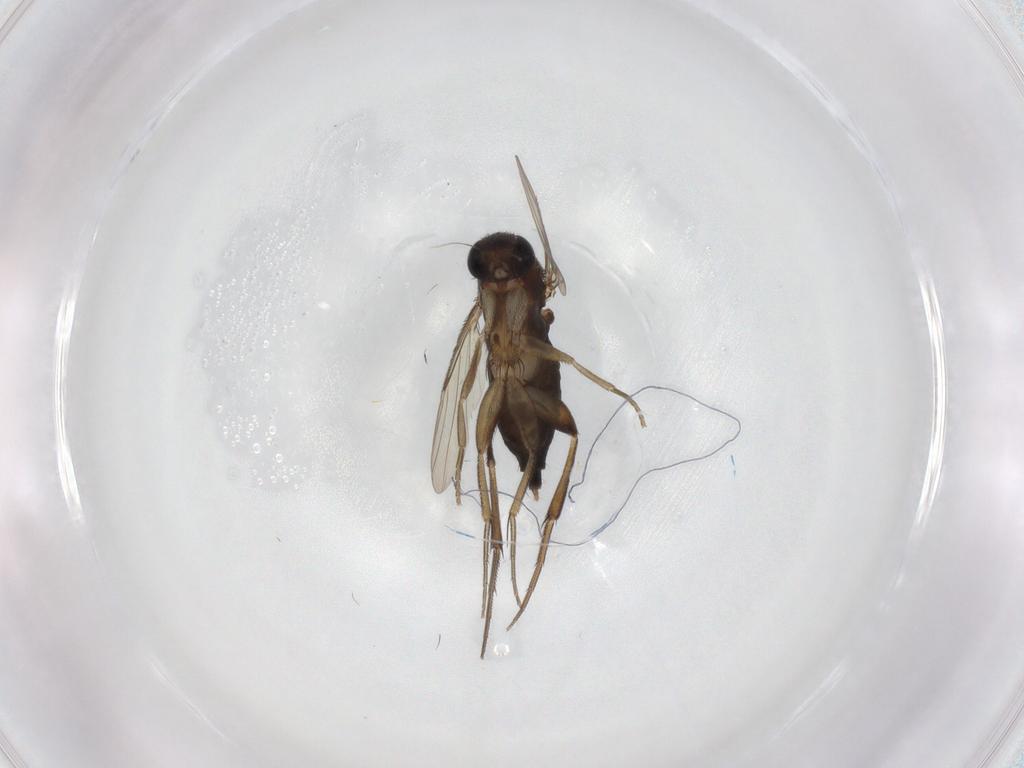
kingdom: Animalia
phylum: Arthropoda
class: Insecta
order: Diptera
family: Phoridae
